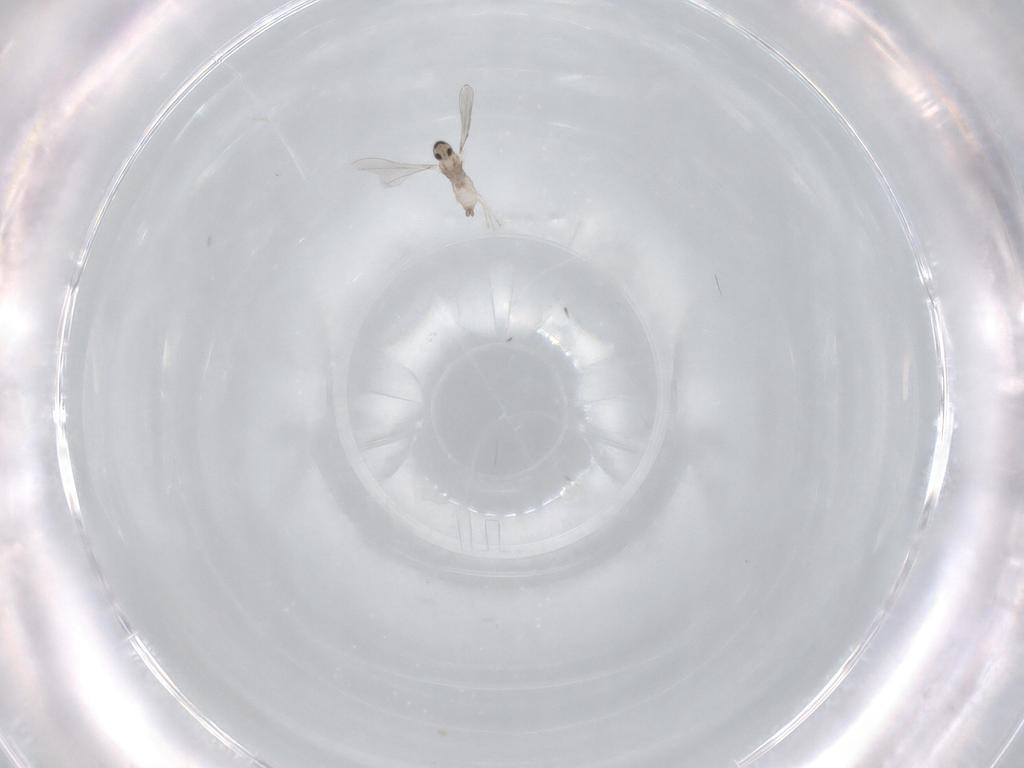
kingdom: Animalia
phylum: Arthropoda
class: Insecta
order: Diptera
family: Cecidomyiidae
